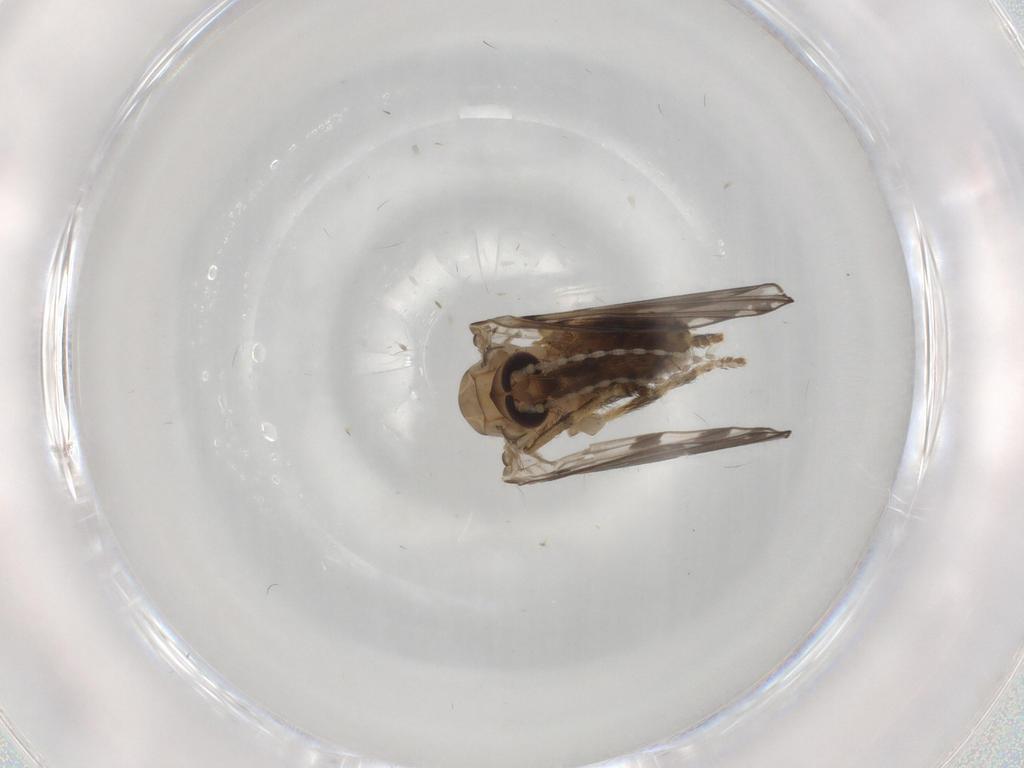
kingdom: Animalia
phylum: Arthropoda
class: Insecta
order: Diptera
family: Psychodidae
